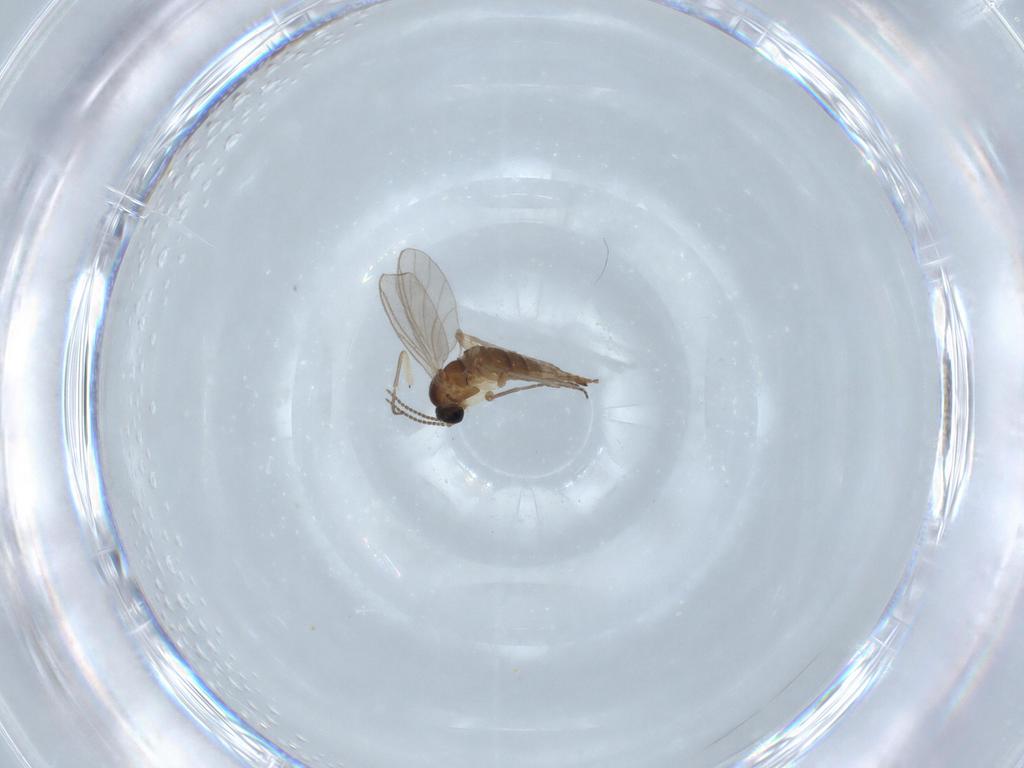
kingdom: Animalia
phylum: Arthropoda
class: Insecta
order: Diptera
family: Sciaridae
